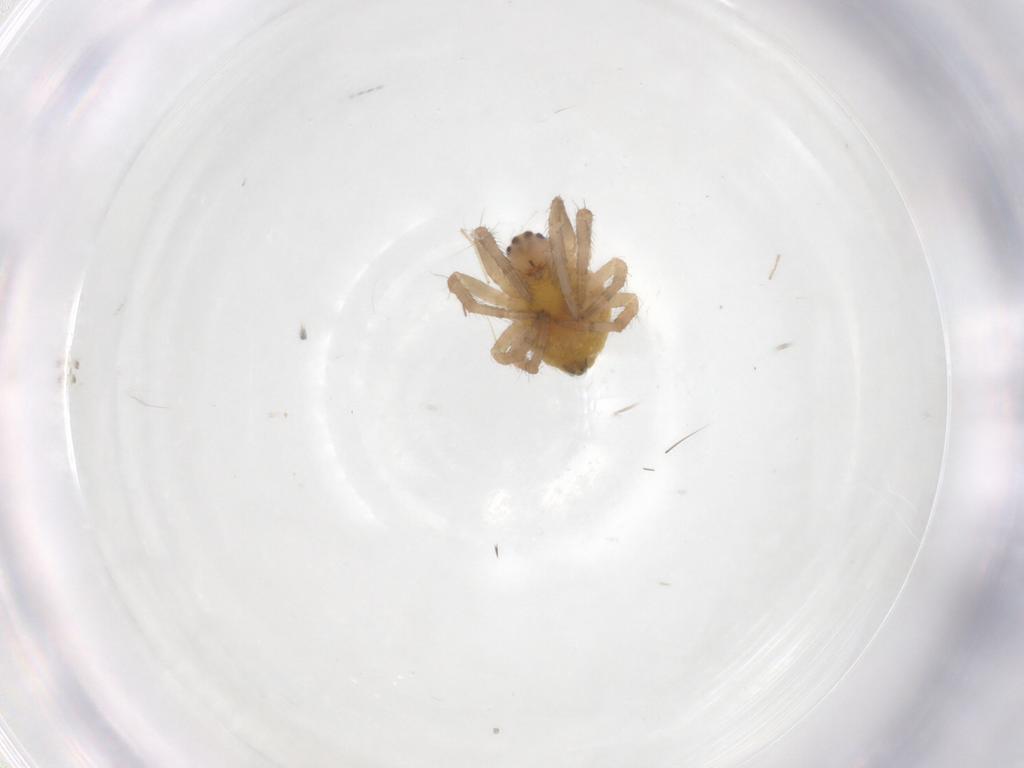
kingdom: Animalia
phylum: Arthropoda
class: Arachnida
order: Araneae
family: Araneidae
